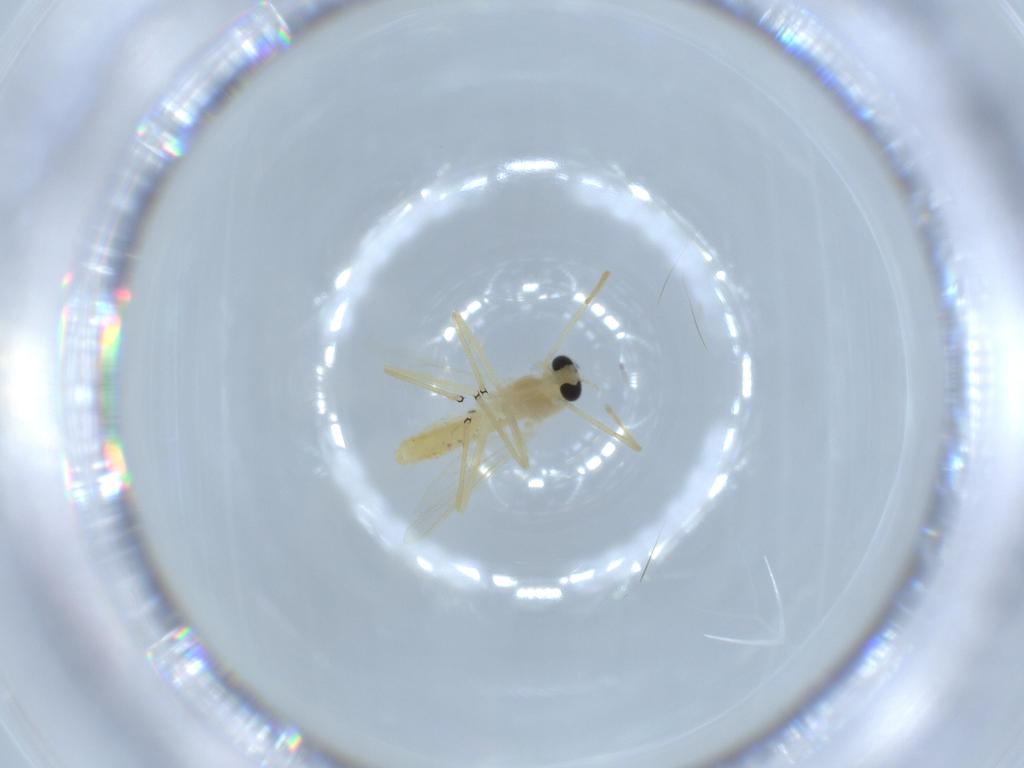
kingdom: Animalia
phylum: Arthropoda
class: Insecta
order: Diptera
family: Chironomidae
